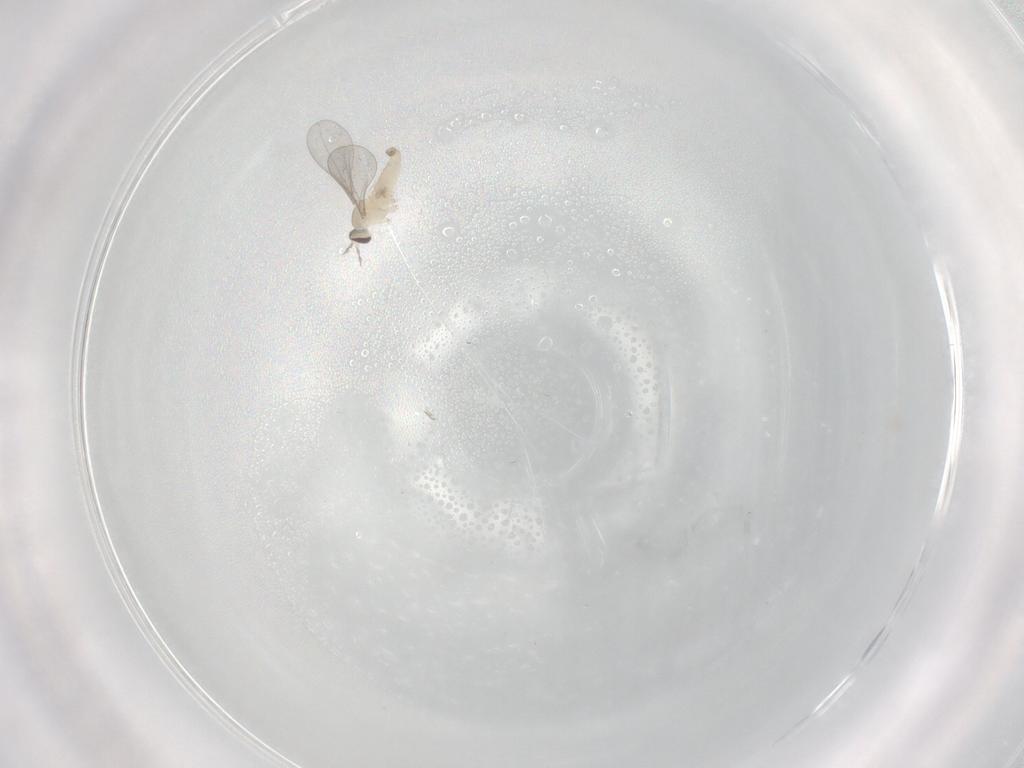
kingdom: Animalia
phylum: Arthropoda
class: Insecta
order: Diptera
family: Cecidomyiidae
